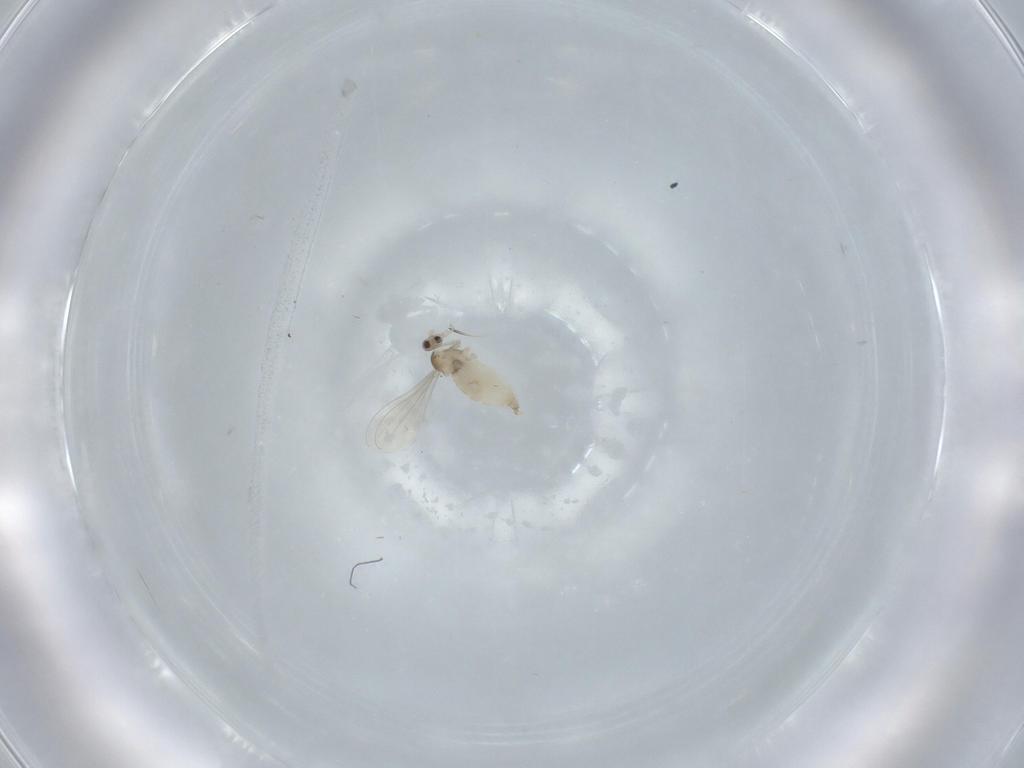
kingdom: Animalia
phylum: Arthropoda
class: Insecta
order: Diptera
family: Cecidomyiidae
